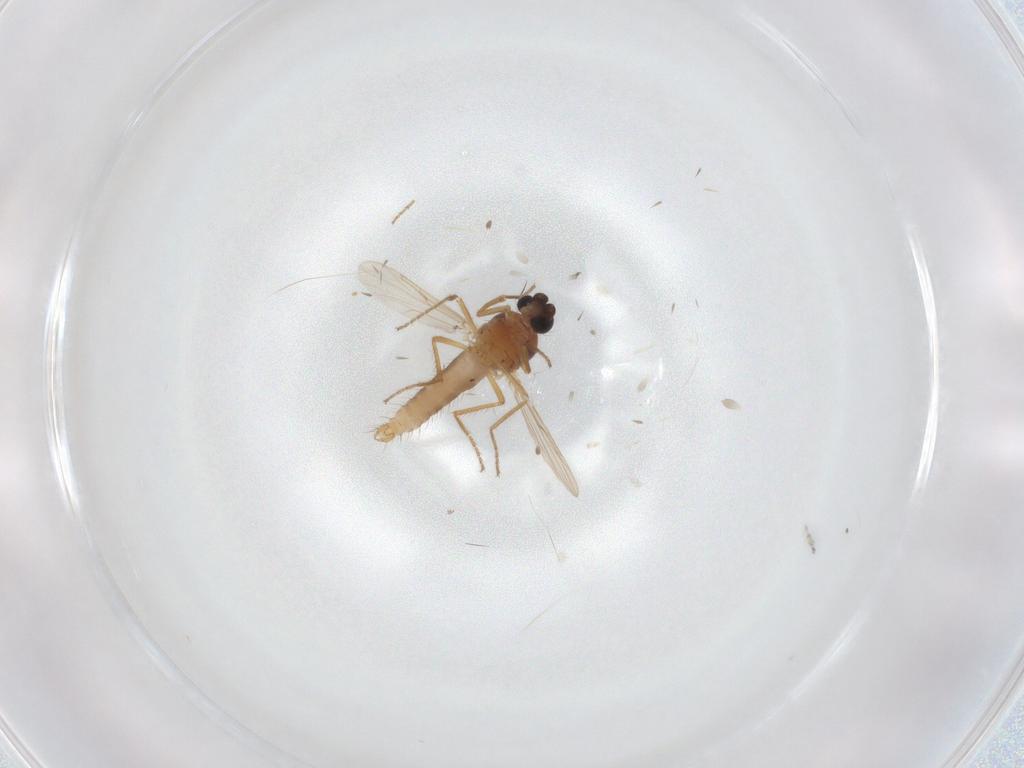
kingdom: Animalia
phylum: Arthropoda
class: Insecta
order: Diptera
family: Ceratopogonidae
